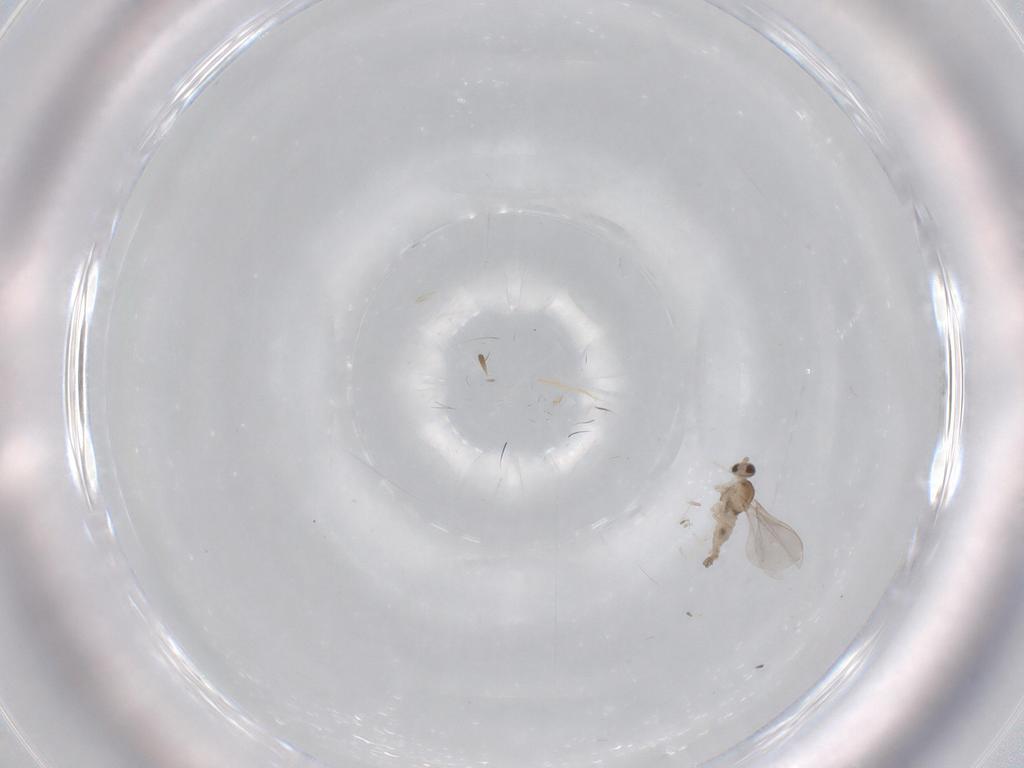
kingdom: Animalia
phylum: Arthropoda
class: Insecta
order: Diptera
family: Cecidomyiidae
